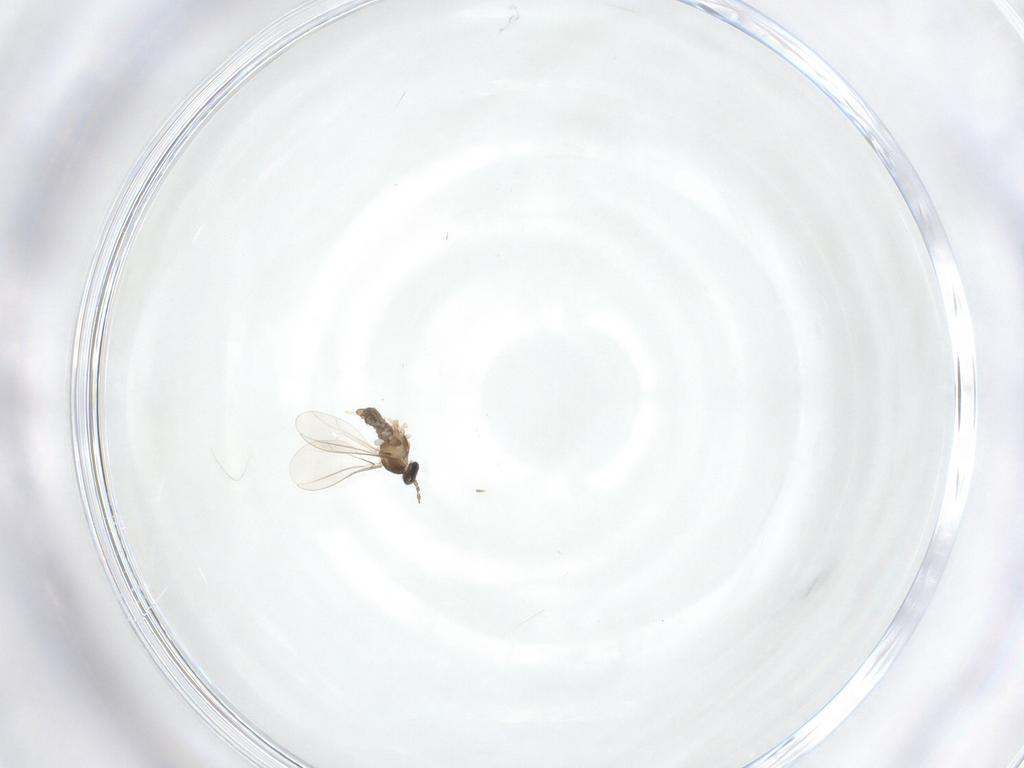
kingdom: Animalia
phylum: Arthropoda
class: Insecta
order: Diptera
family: Cecidomyiidae
